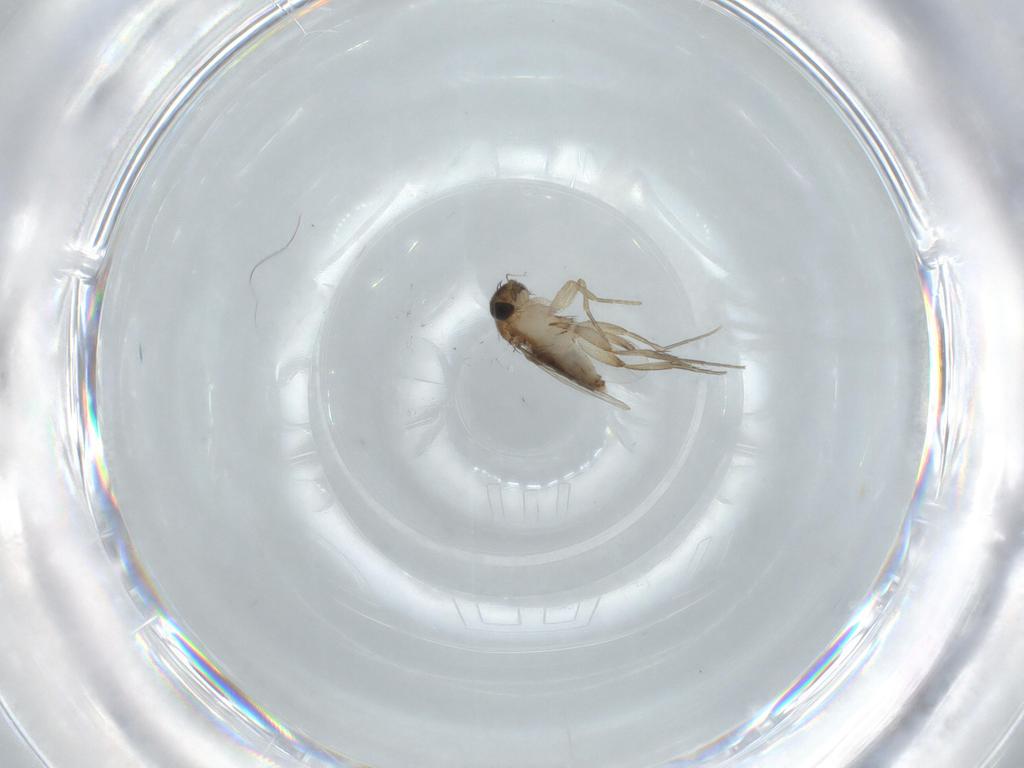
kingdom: Animalia
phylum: Arthropoda
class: Insecta
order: Diptera
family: Phoridae
